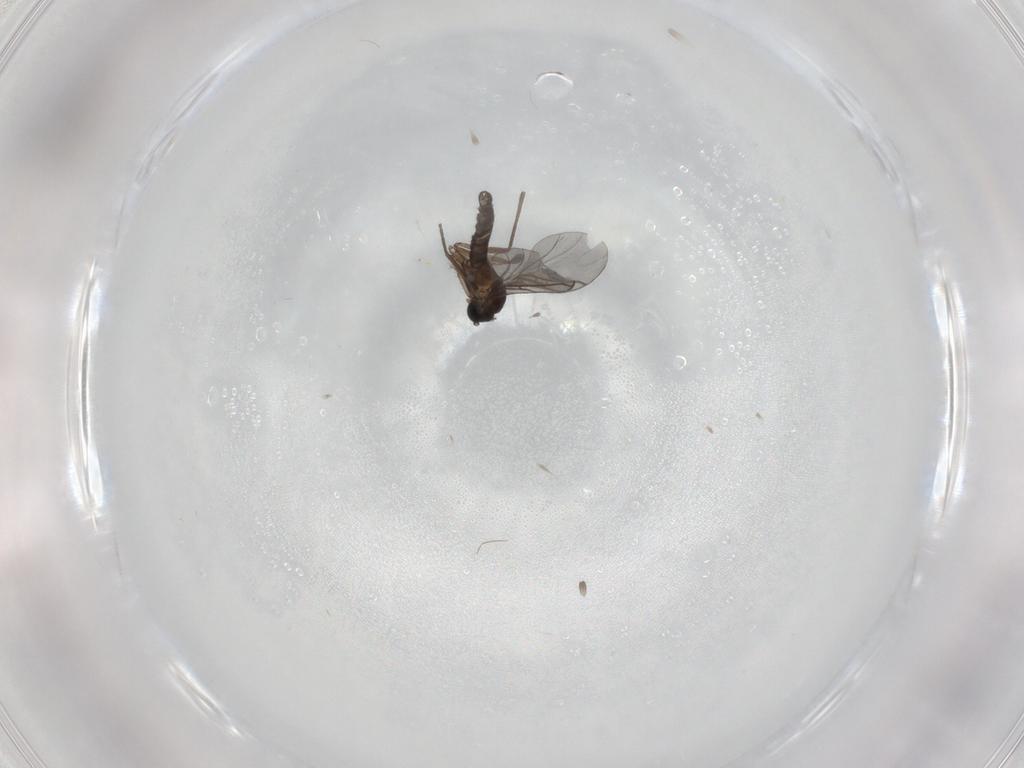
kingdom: Animalia
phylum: Arthropoda
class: Insecta
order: Diptera
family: Psychodidae
